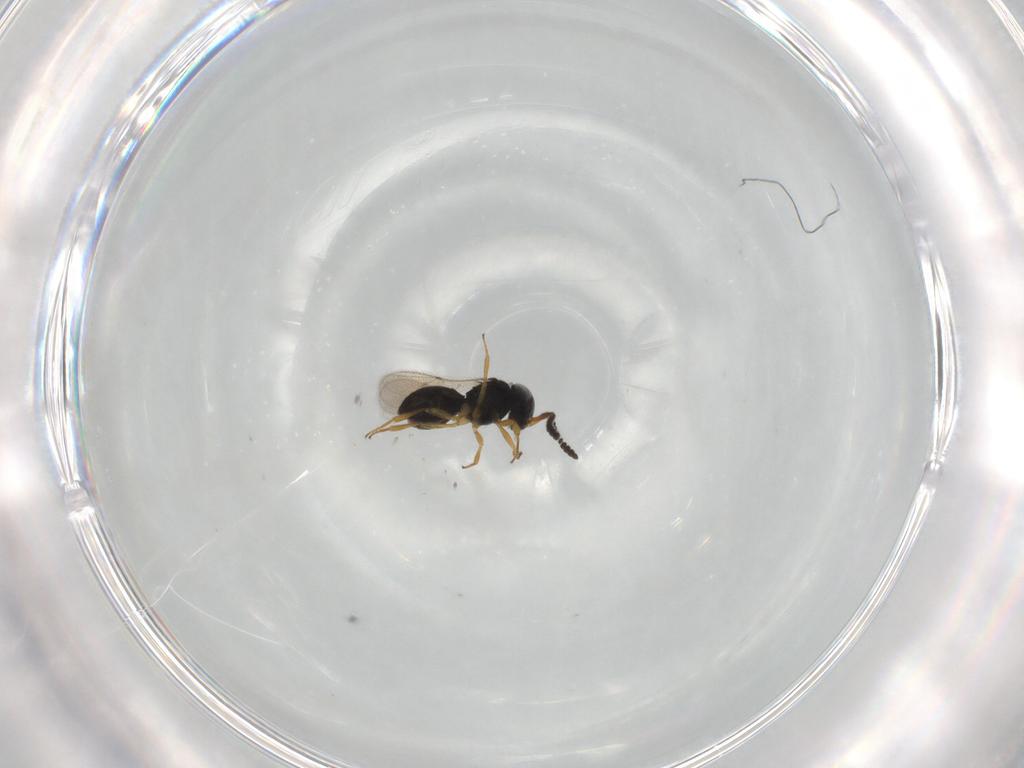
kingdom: Animalia
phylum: Arthropoda
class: Insecta
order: Hymenoptera
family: Scelionidae
